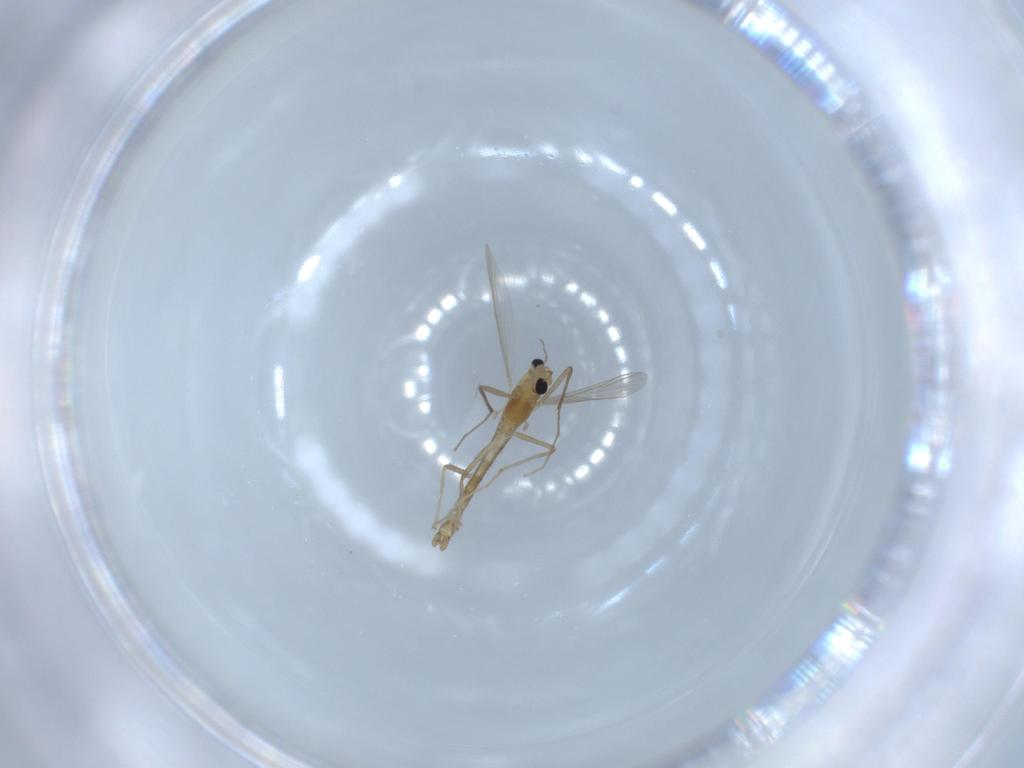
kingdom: Animalia
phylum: Arthropoda
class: Insecta
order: Diptera
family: Chironomidae
